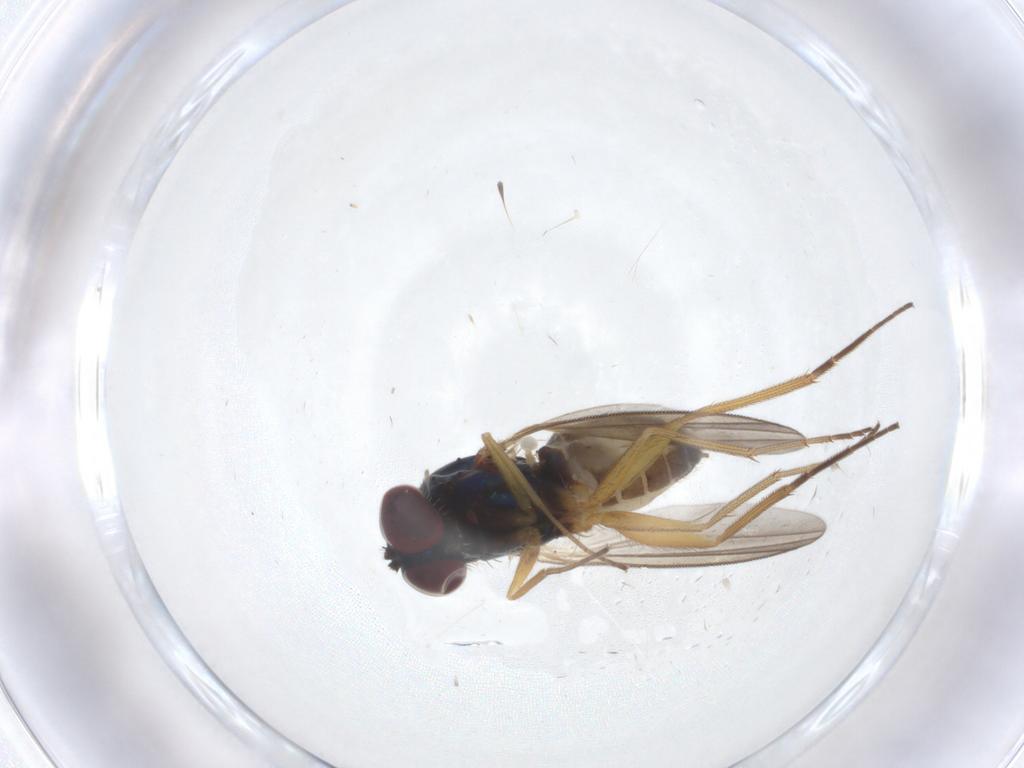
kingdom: Animalia
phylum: Arthropoda
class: Insecta
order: Diptera
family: Dolichopodidae
